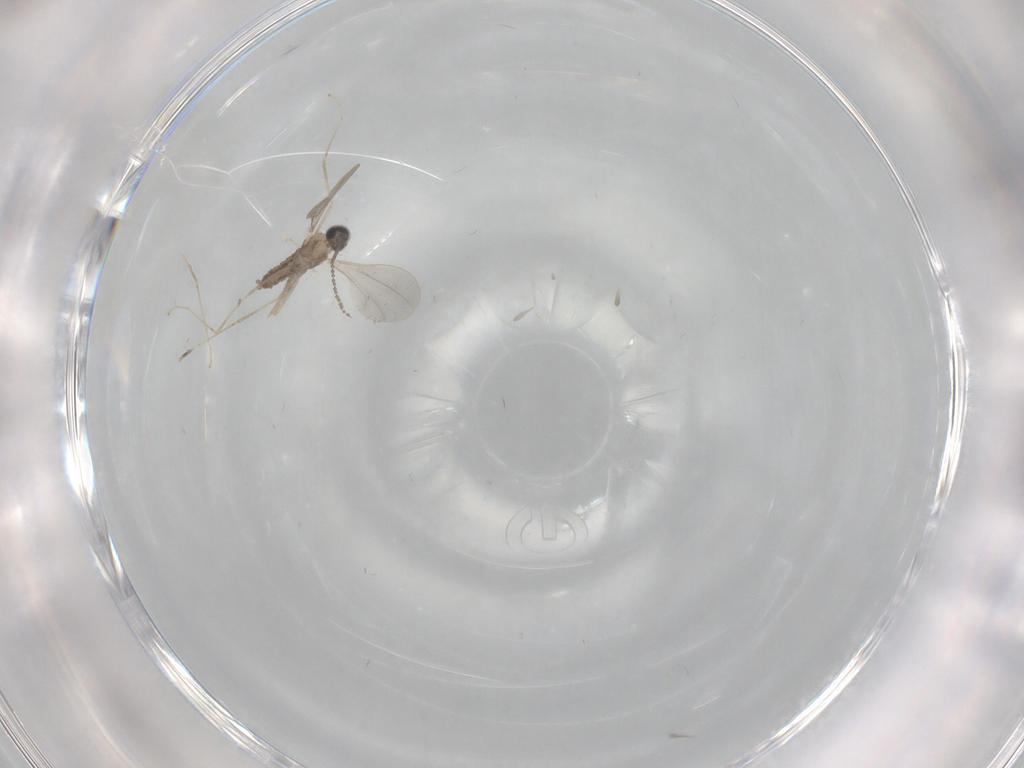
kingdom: Animalia
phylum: Arthropoda
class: Insecta
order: Diptera
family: Cecidomyiidae
